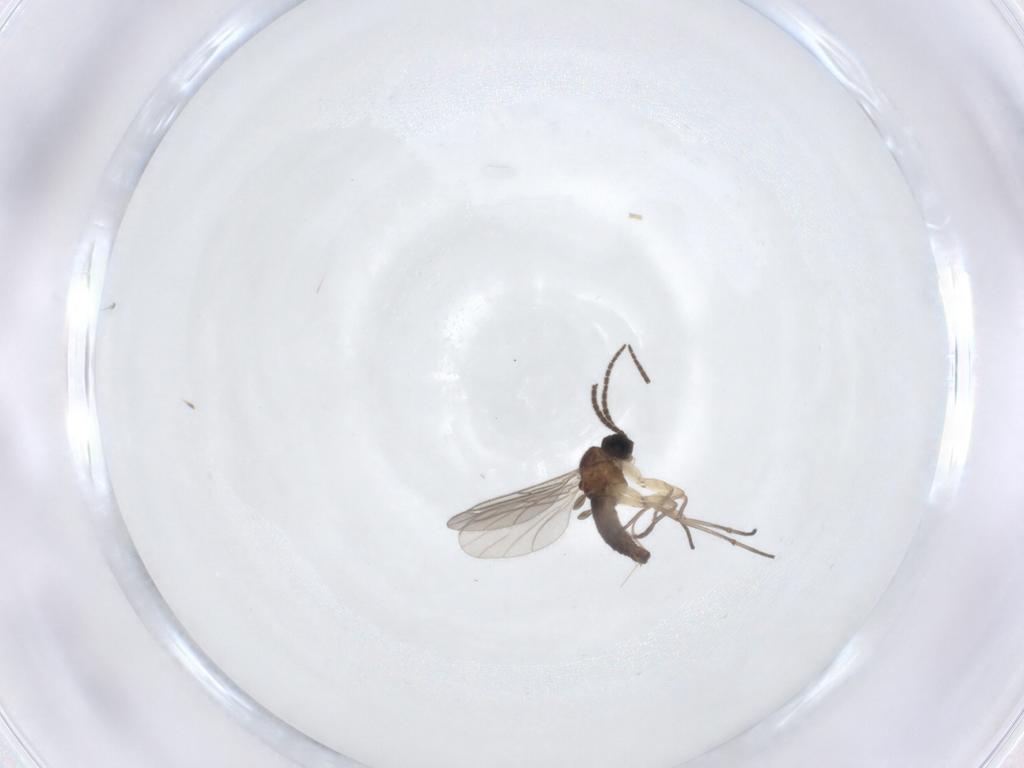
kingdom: Animalia
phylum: Arthropoda
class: Insecta
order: Diptera
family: Sciaridae
